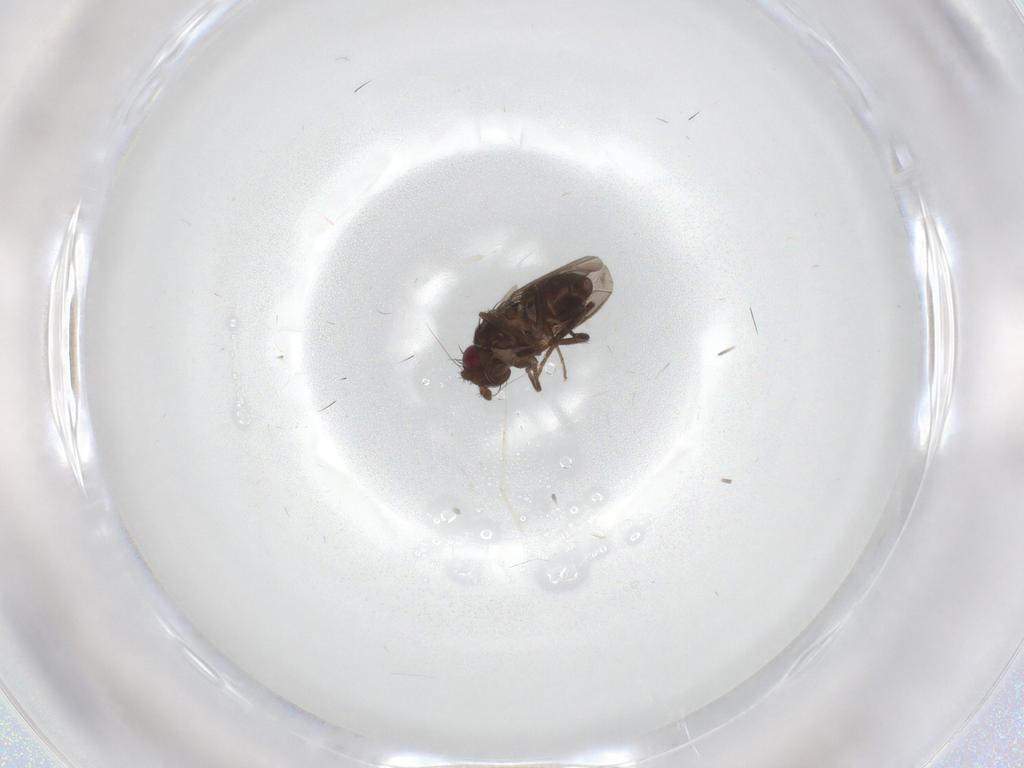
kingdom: Animalia
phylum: Arthropoda
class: Insecta
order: Diptera
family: Sphaeroceridae
